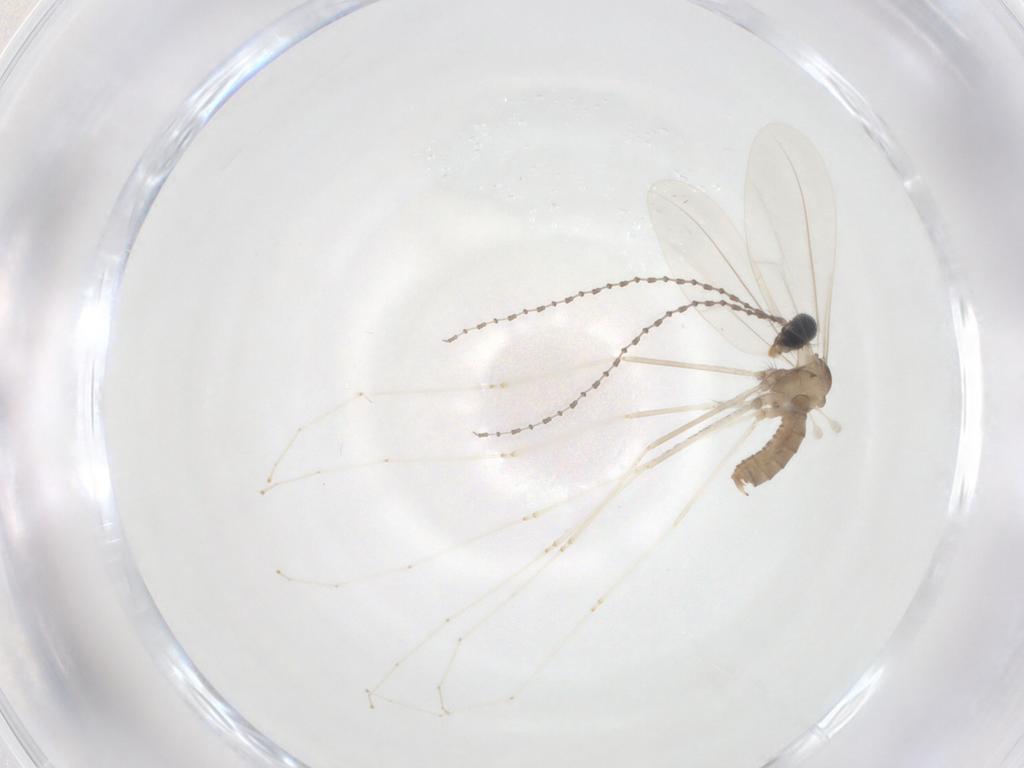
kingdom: Animalia
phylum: Arthropoda
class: Insecta
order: Diptera
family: Cecidomyiidae
